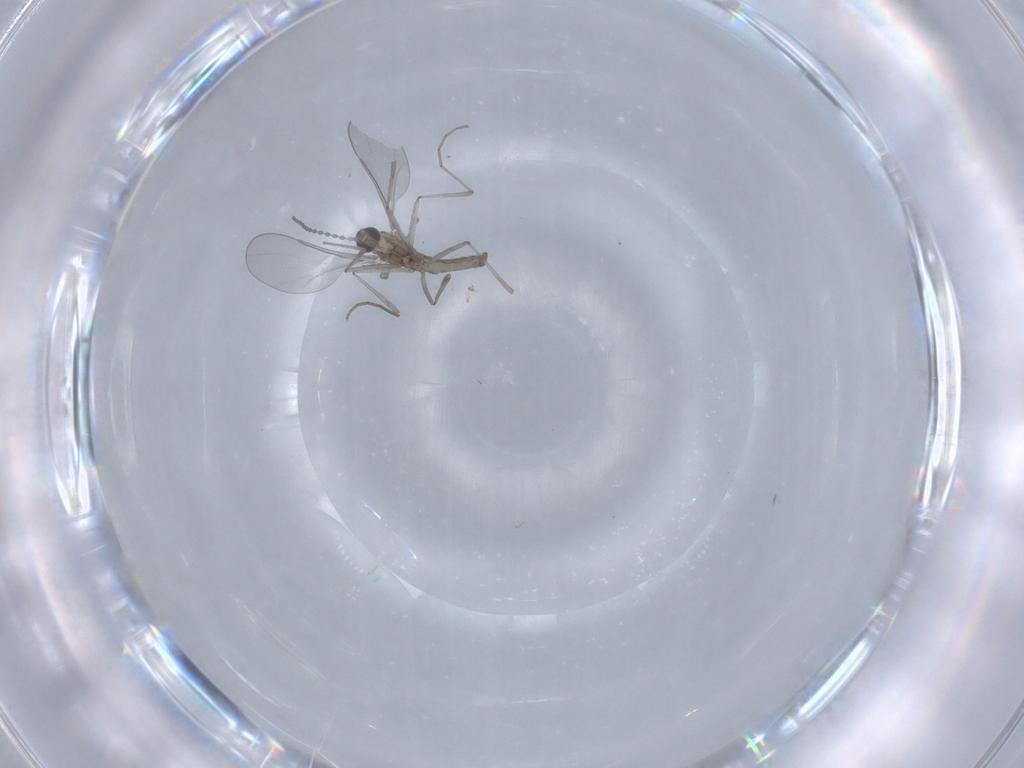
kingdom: Animalia
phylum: Arthropoda
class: Insecta
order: Diptera
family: Cecidomyiidae
